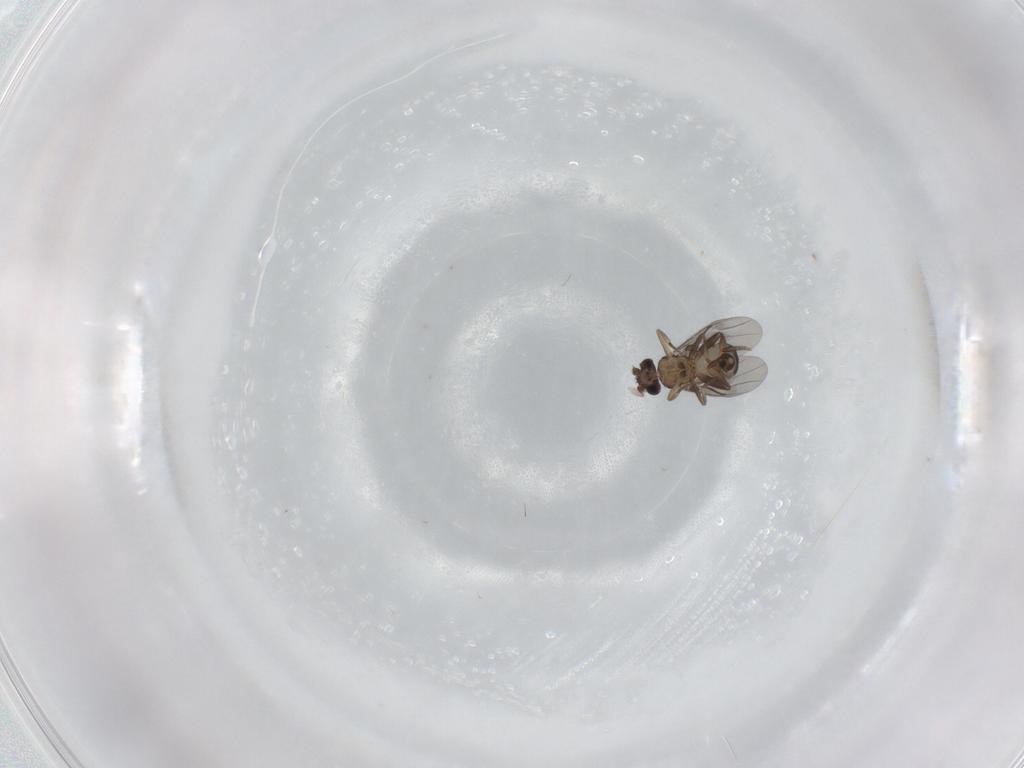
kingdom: Animalia
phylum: Arthropoda
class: Insecta
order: Diptera
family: Phoridae
